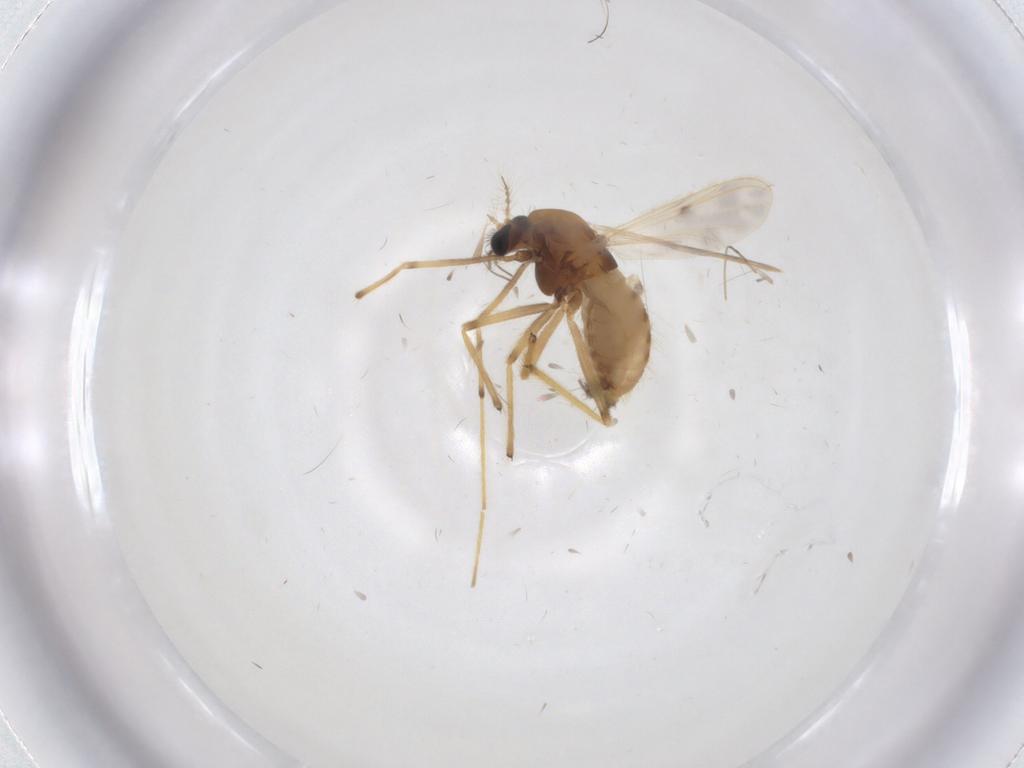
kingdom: Animalia
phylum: Arthropoda
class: Insecta
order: Diptera
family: Chironomidae
